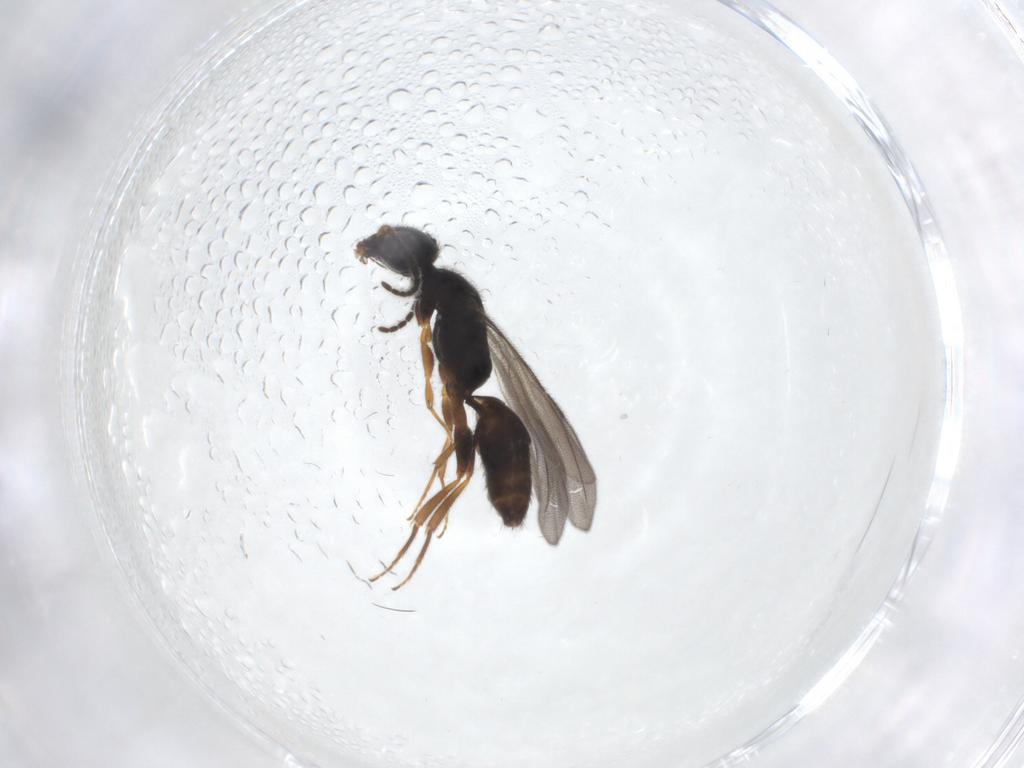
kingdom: Animalia
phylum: Arthropoda
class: Insecta
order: Hymenoptera
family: Bethylidae
